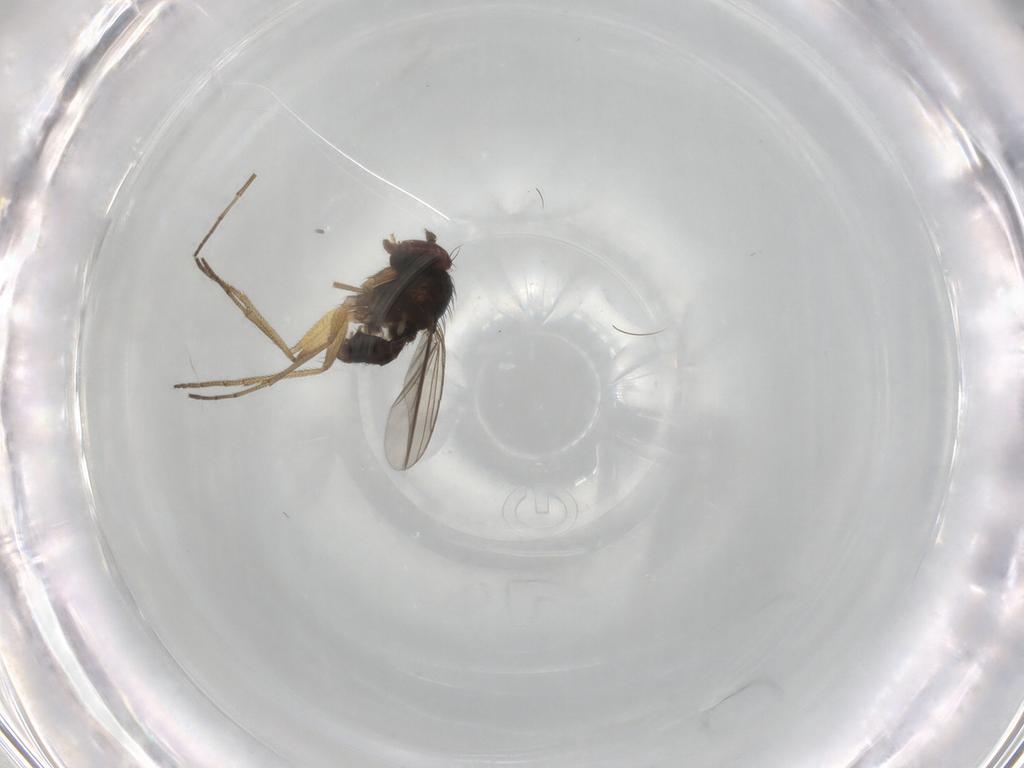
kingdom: Animalia
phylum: Arthropoda
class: Insecta
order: Diptera
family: Dolichopodidae
